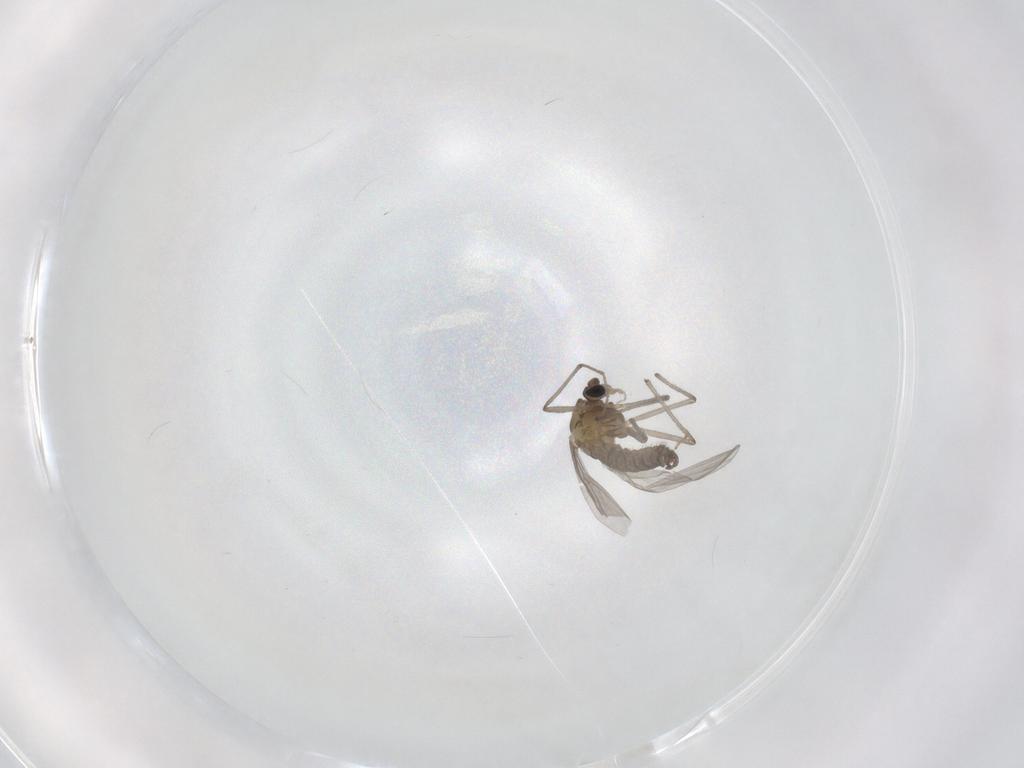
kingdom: Animalia
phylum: Arthropoda
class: Insecta
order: Diptera
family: Chironomidae
